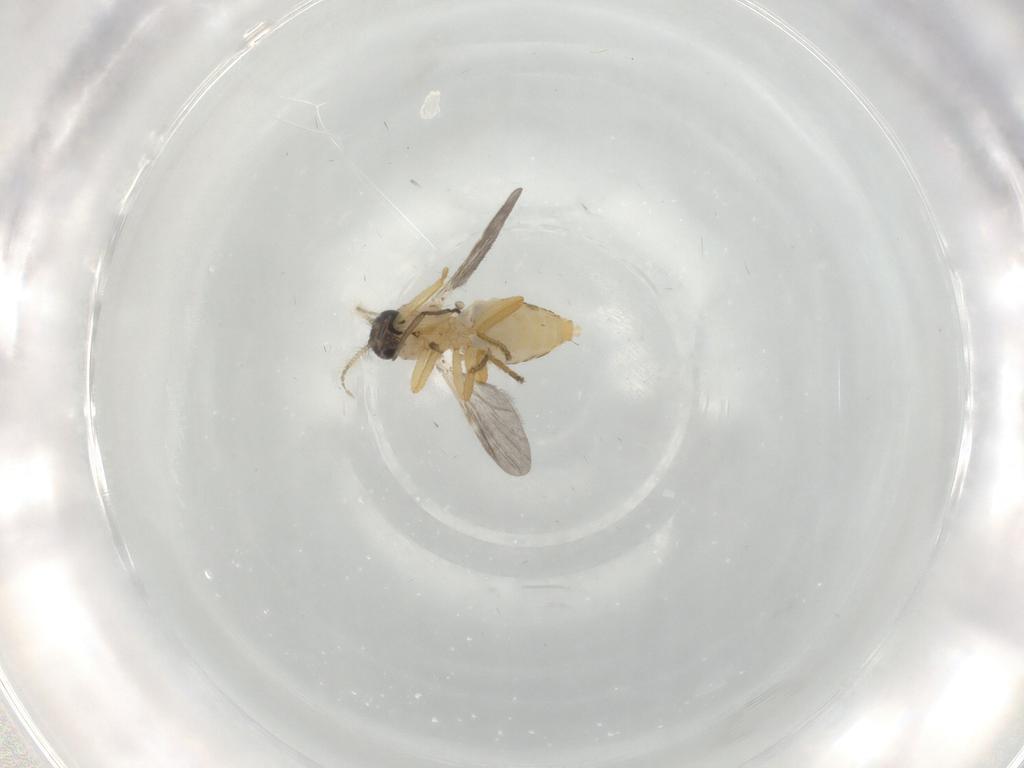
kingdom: Animalia
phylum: Arthropoda
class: Insecta
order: Diptera
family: Ceratopogonidae
